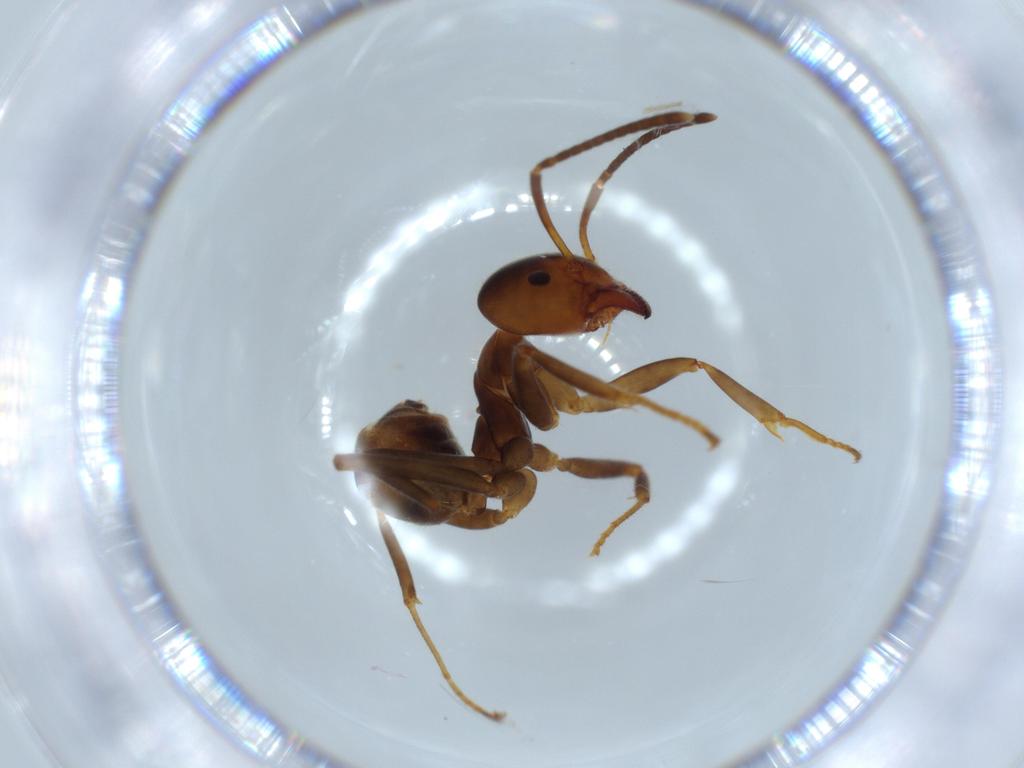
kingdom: Animalia
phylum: Arthropoda
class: Insecta
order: Hymenoptera
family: Formicidae
